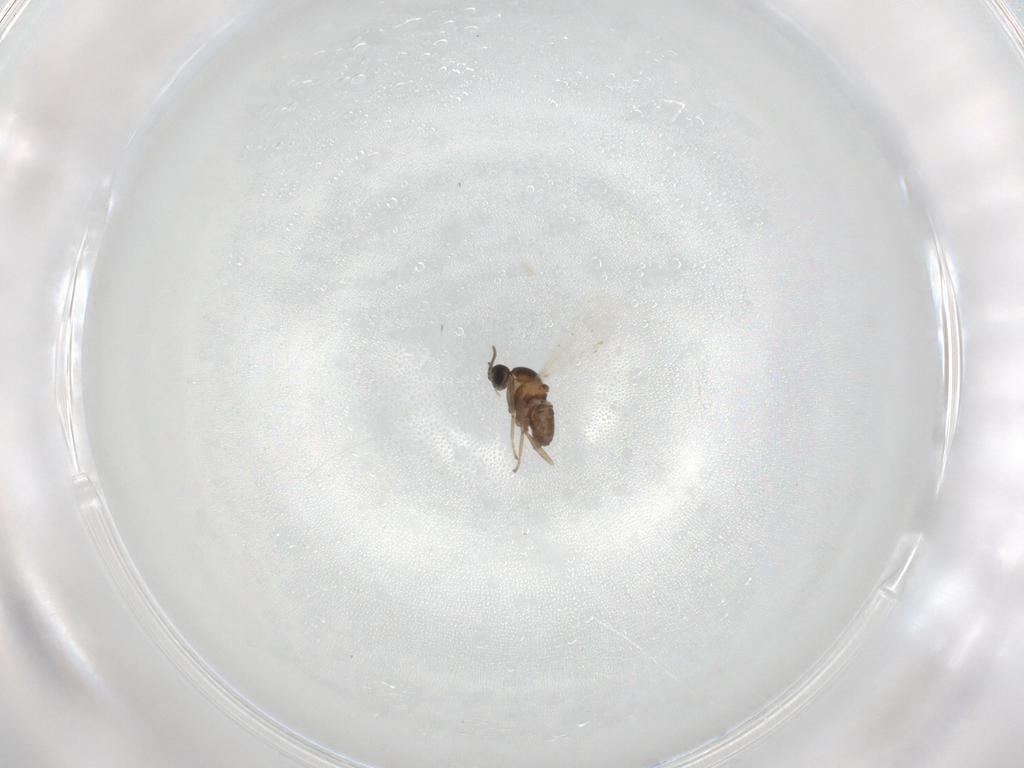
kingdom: Animalia
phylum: Arthropoda
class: Insecta
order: Diptera
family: Cecidomyiidae
